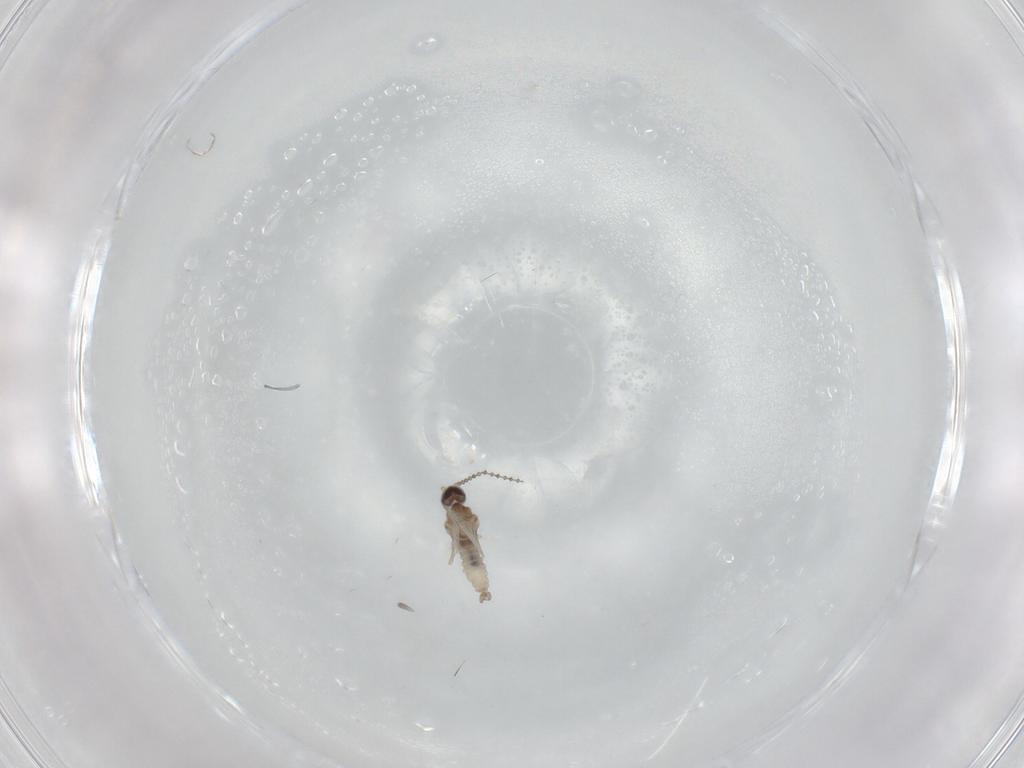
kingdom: Animalia
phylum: Arthropoda
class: Insecta
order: Diptera
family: Cecidomyiidae
